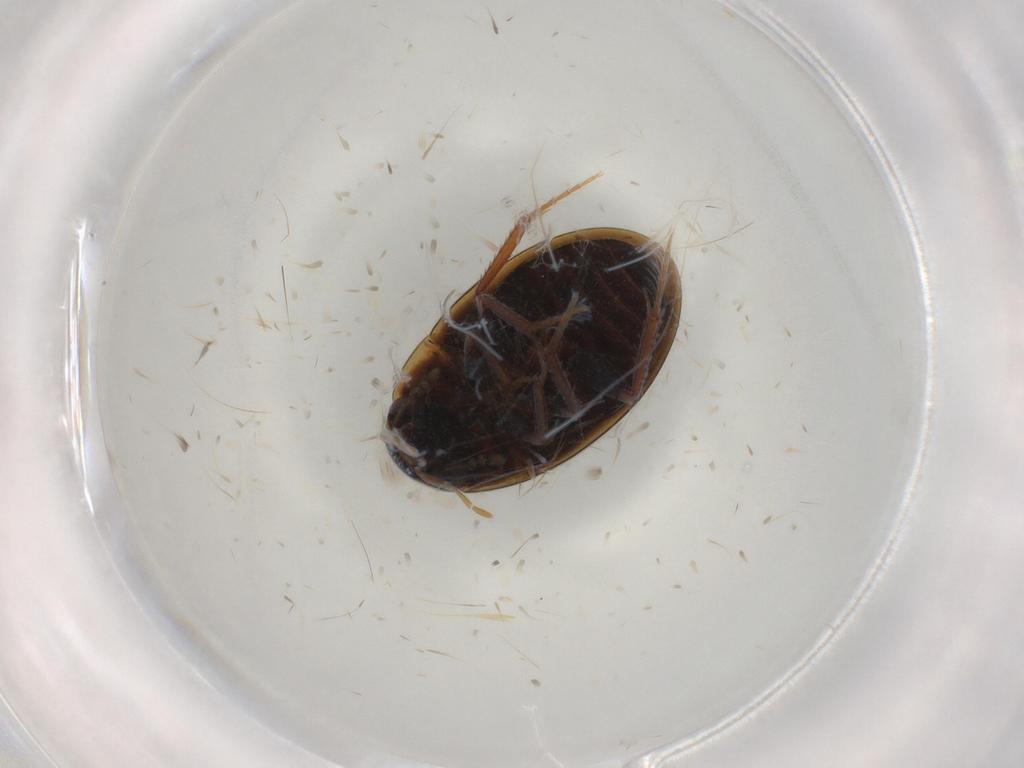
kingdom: Animalia
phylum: Arthropoda
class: Insecta
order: Coleoptera
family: Hydrophilidae
